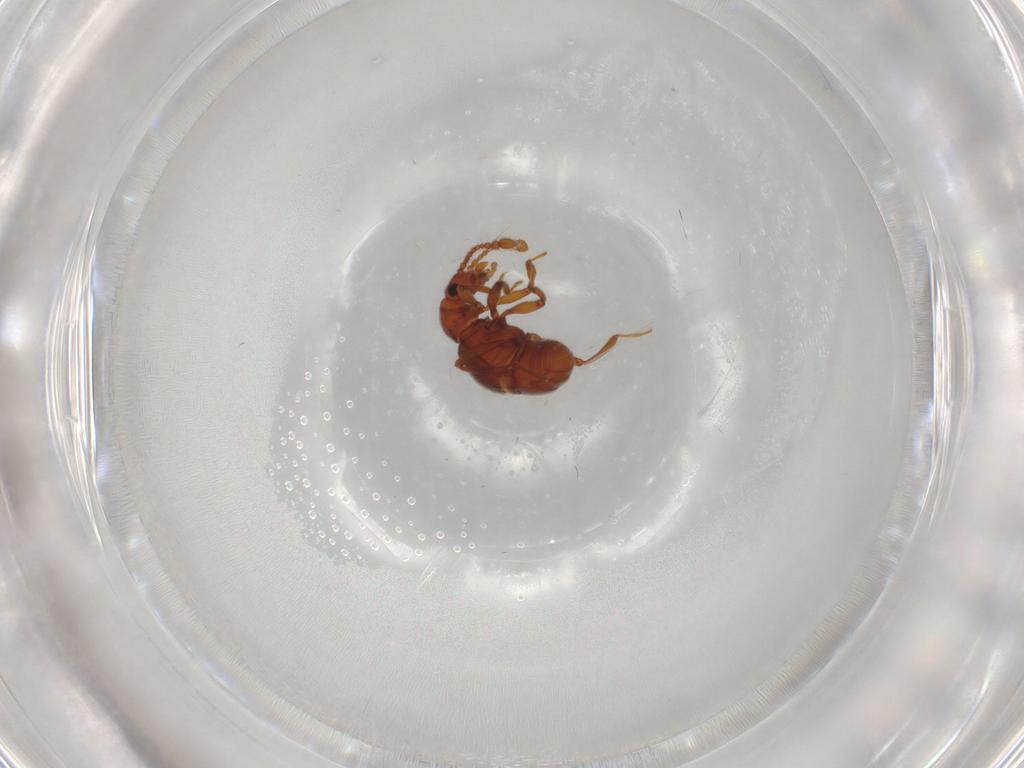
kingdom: Animalia
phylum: Arthropoda
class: Insecta
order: Coleoptera
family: Staphylinidae
